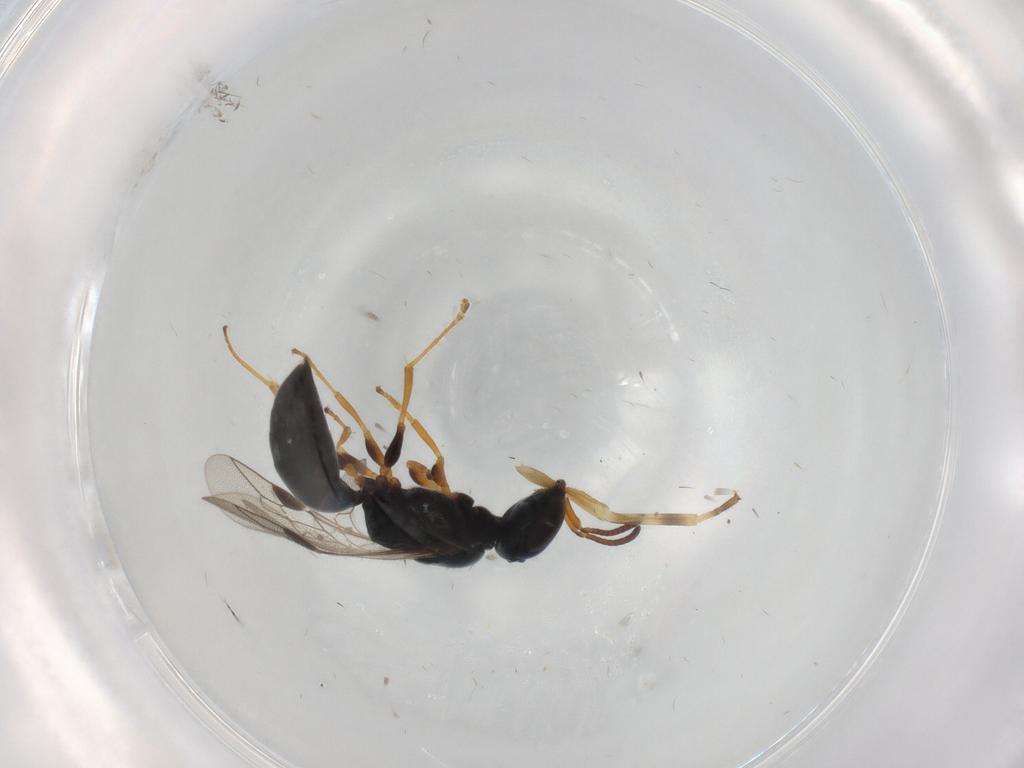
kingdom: Animalia
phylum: Arthropoda
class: Insecta
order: Hymenoptera
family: Pemphredonidae
